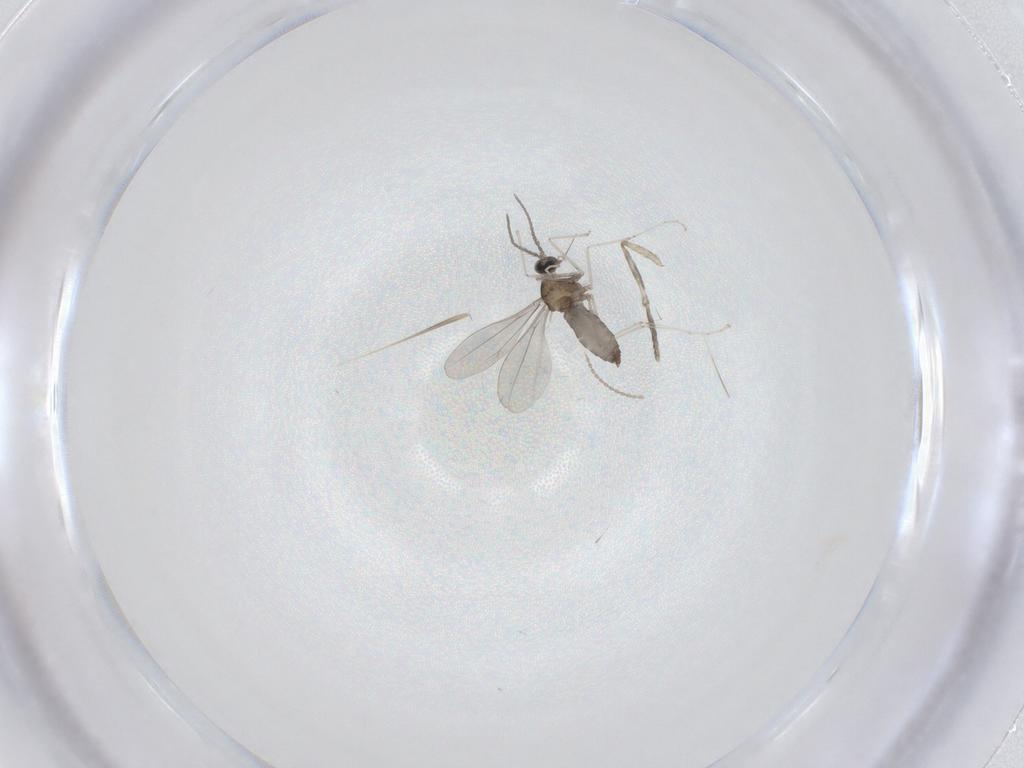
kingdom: Animalia
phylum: Arthropoda
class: Insecta
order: Diptera
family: Cecidomyiidae
